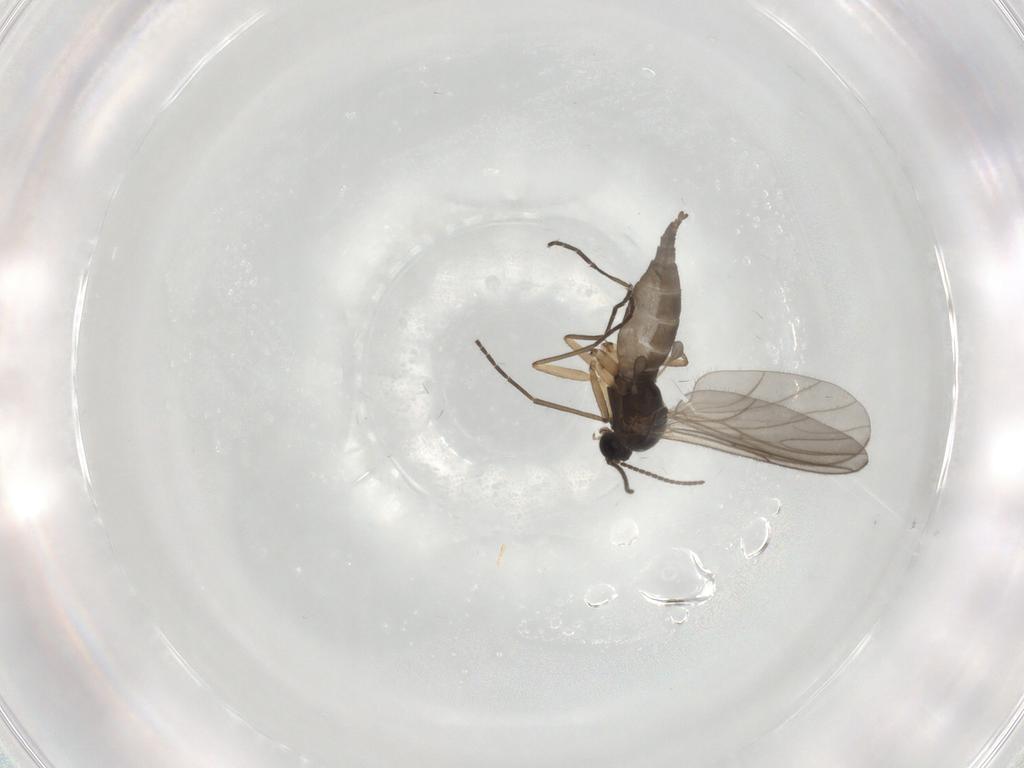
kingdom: Animalia
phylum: Arthropoda
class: Insecta
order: Diptera
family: Sciaridae
